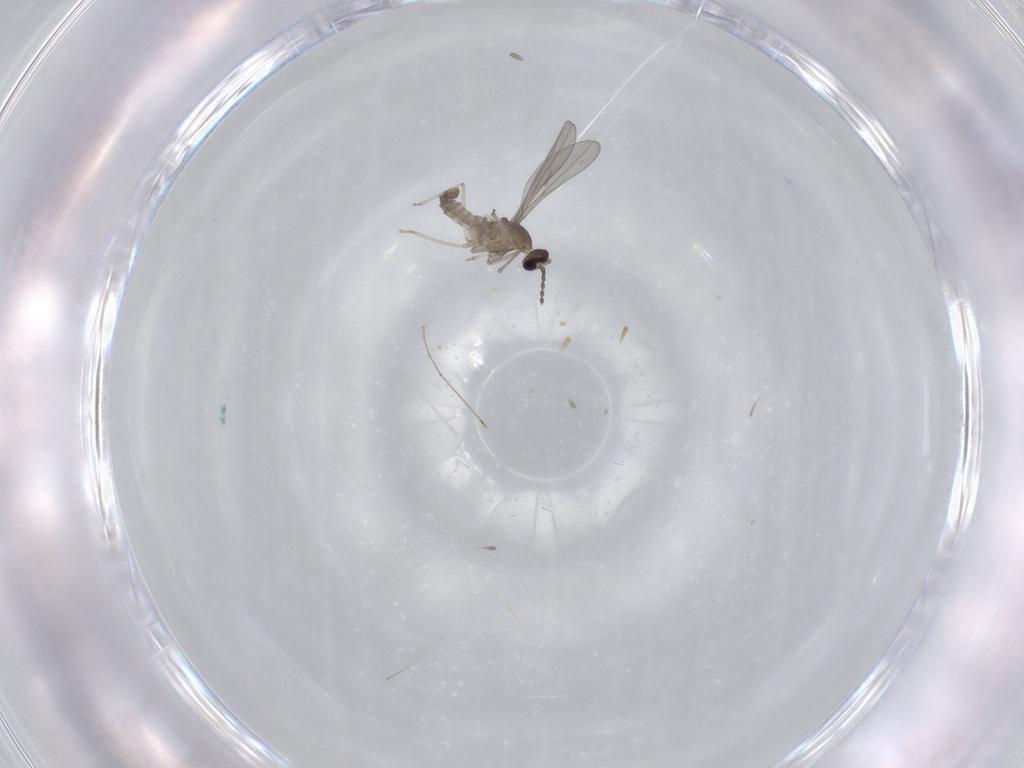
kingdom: Animalia
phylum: Arthropoda
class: Insecta
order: Diptera
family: Cecidomyiidae
